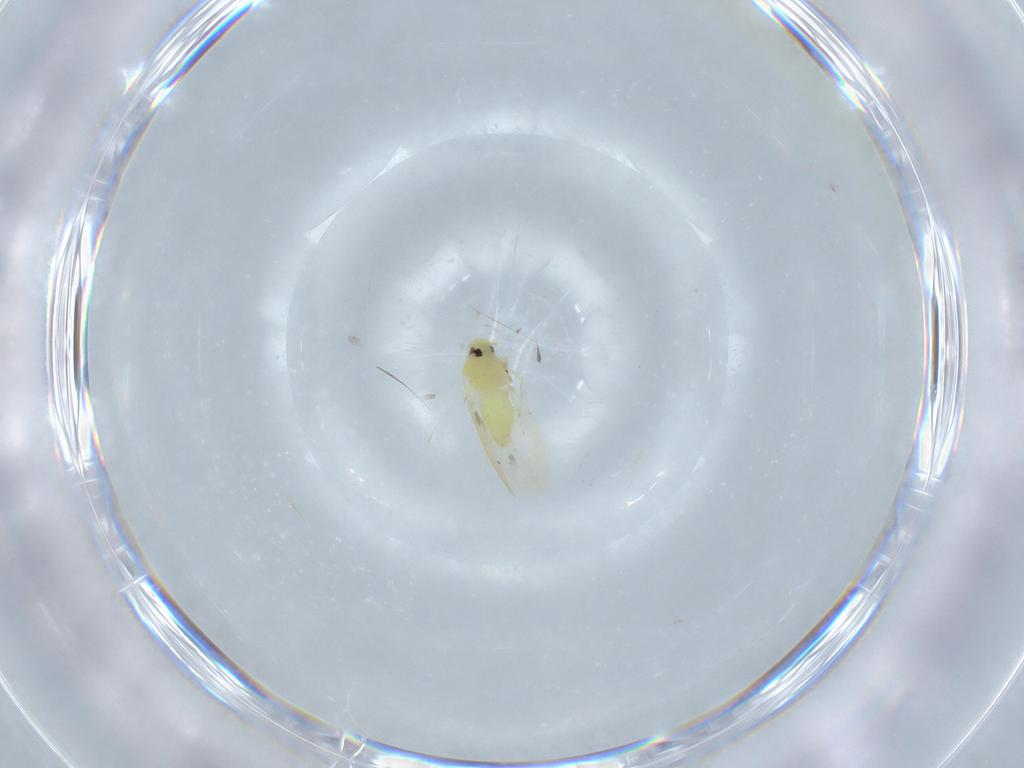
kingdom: Animalia
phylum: Arthropoda
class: Insecta
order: Hemiptera
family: Aleyrodidae
